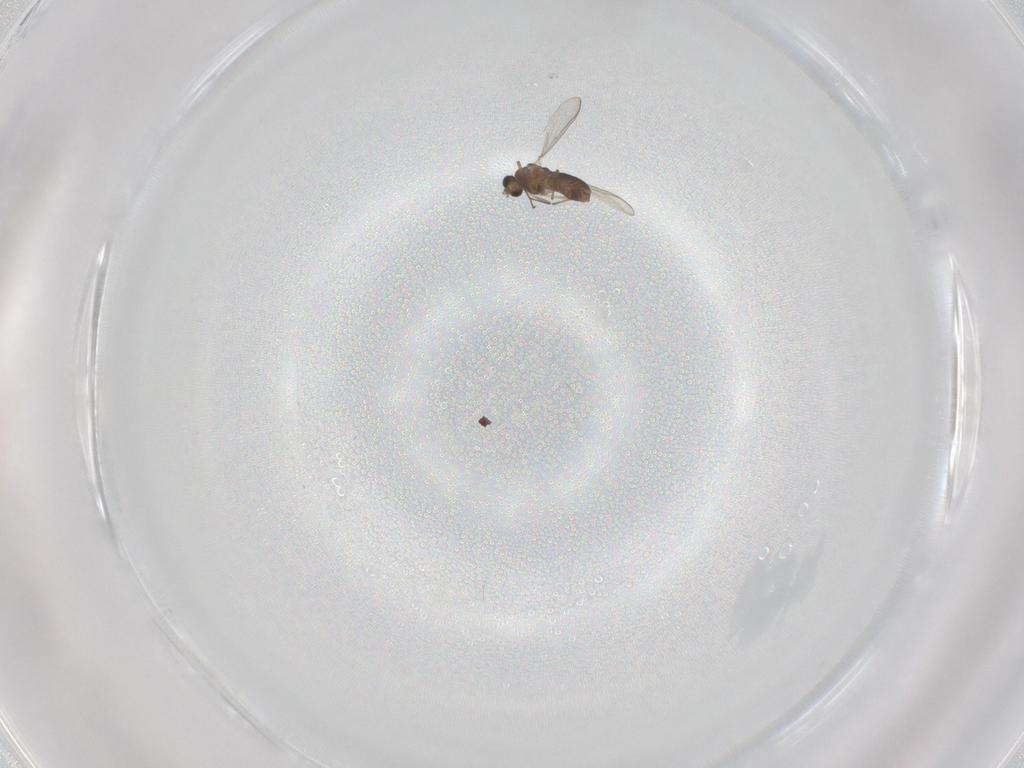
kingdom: Animalia
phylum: Arthropoda
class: Insecta
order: Diptera
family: Chironomidae
